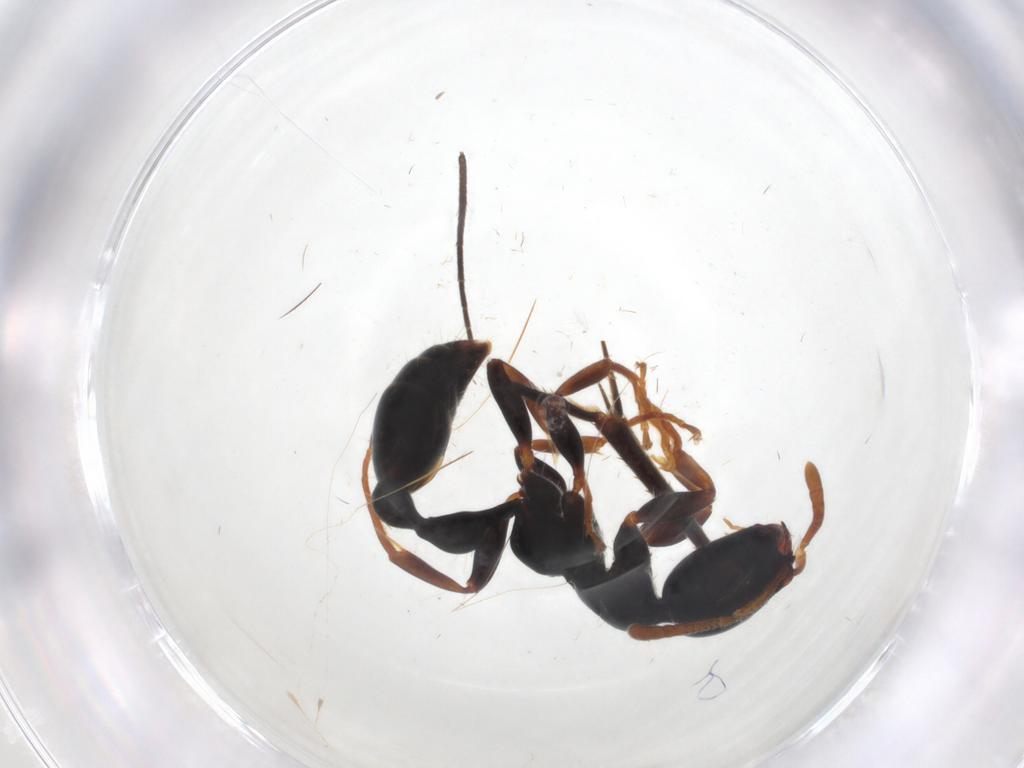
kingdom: Animalia
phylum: Arthropoda
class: Insecta
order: Hymenoptera
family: Formicidae
